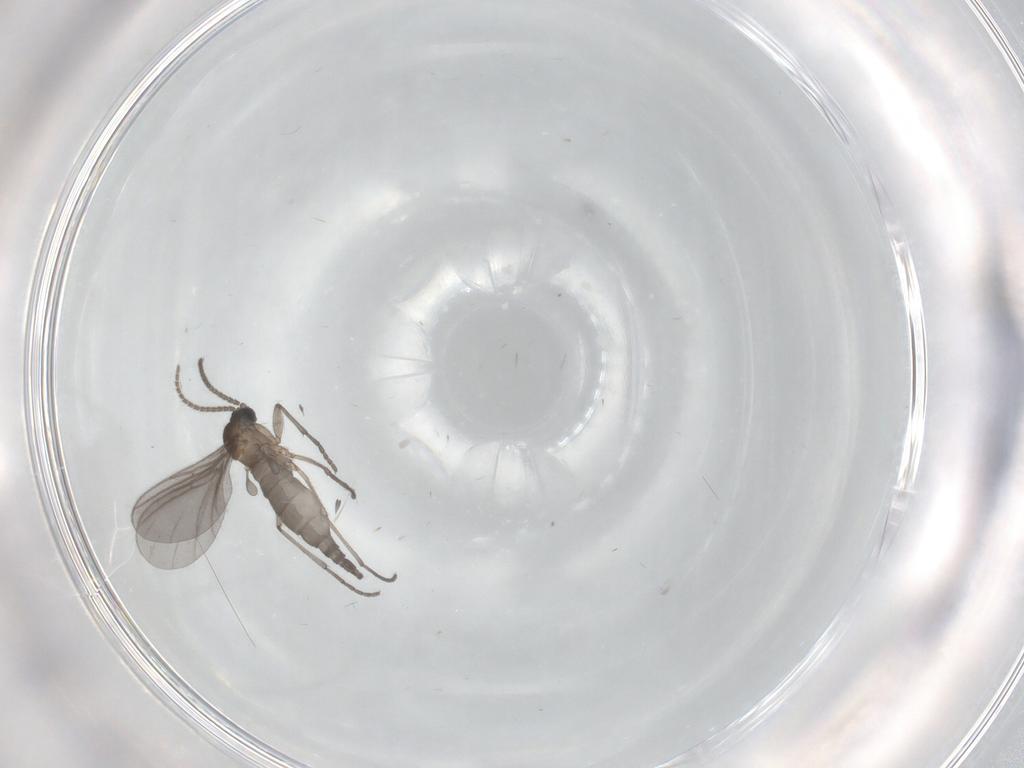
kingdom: Animalia
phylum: Arthropoda
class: Insecta
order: Diptera
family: Sciaridae
